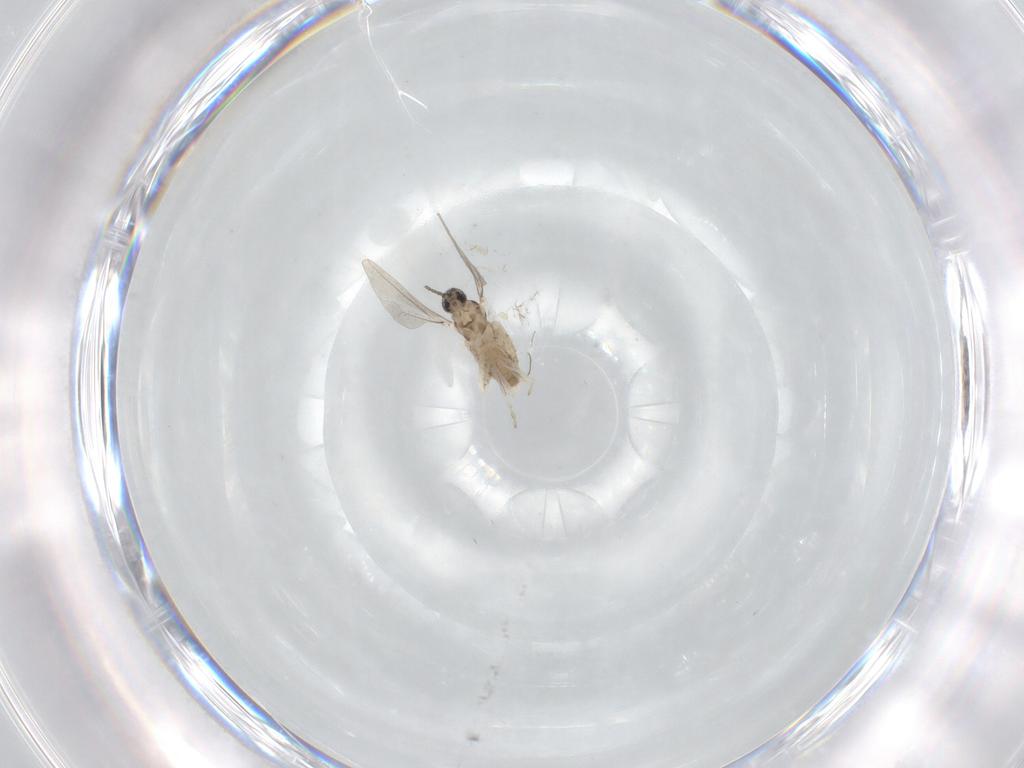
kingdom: Animalia
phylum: Arthropoda
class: Insecta
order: Diptera
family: Cecidomyiidae
